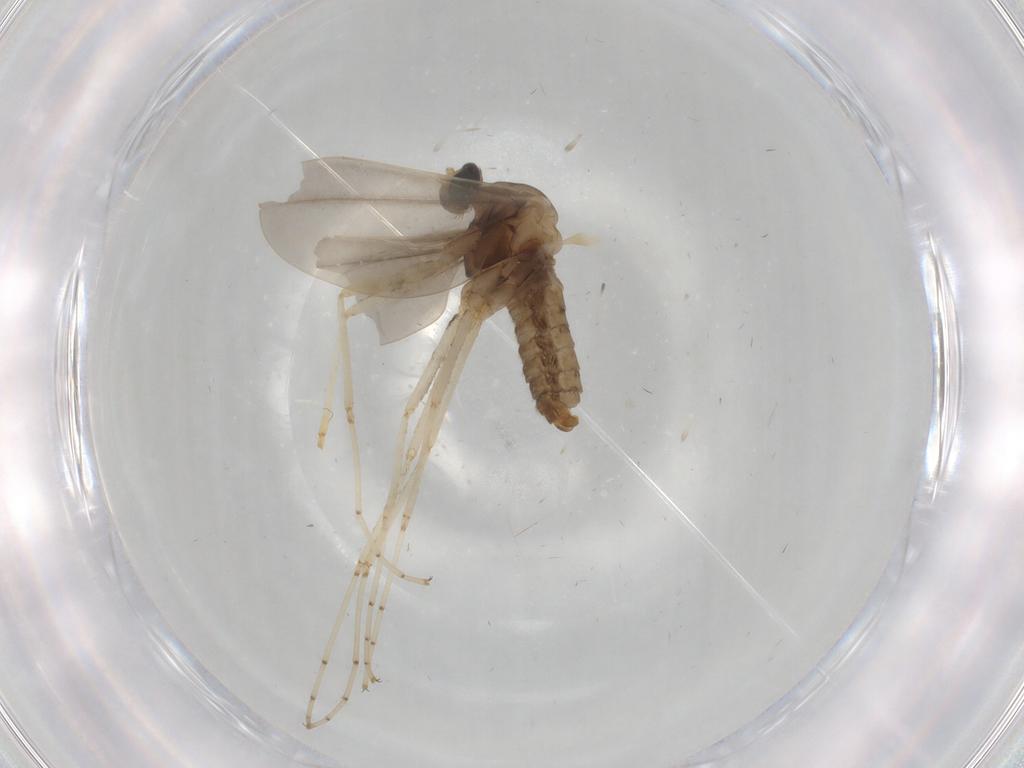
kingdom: Animalia
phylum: Arthropoda
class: Insecta
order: Diptera
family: Cecidomyiidae
